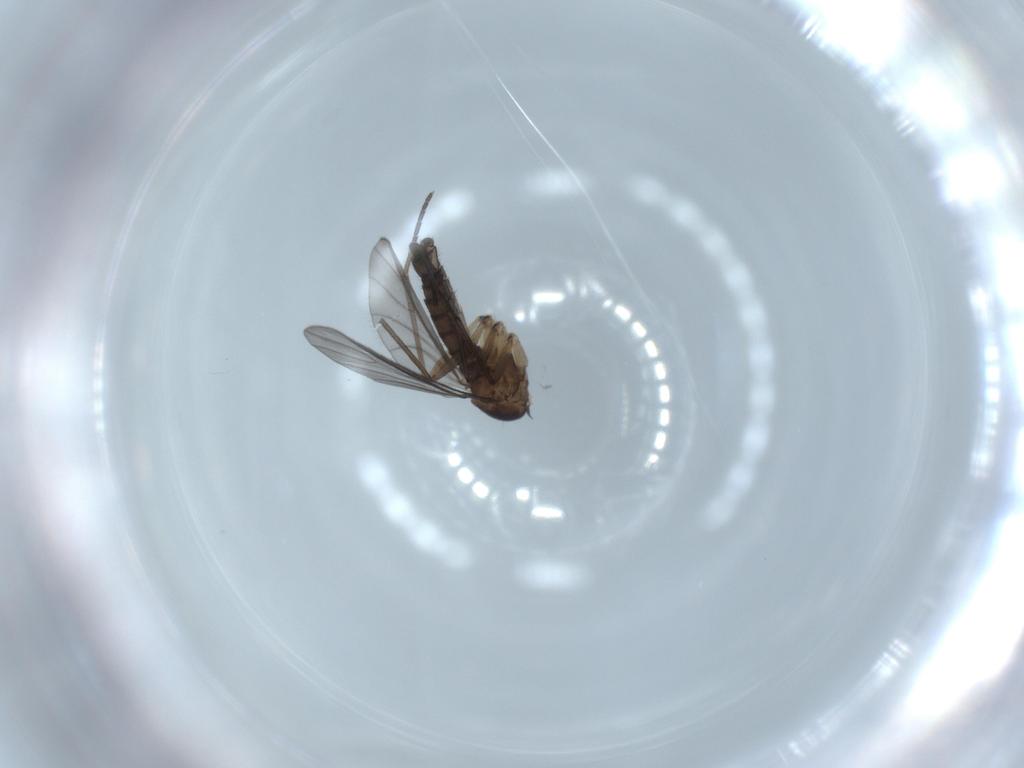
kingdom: Animalia
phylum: Arthropoda
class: Insecta
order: Diptera
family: Sciaridae
